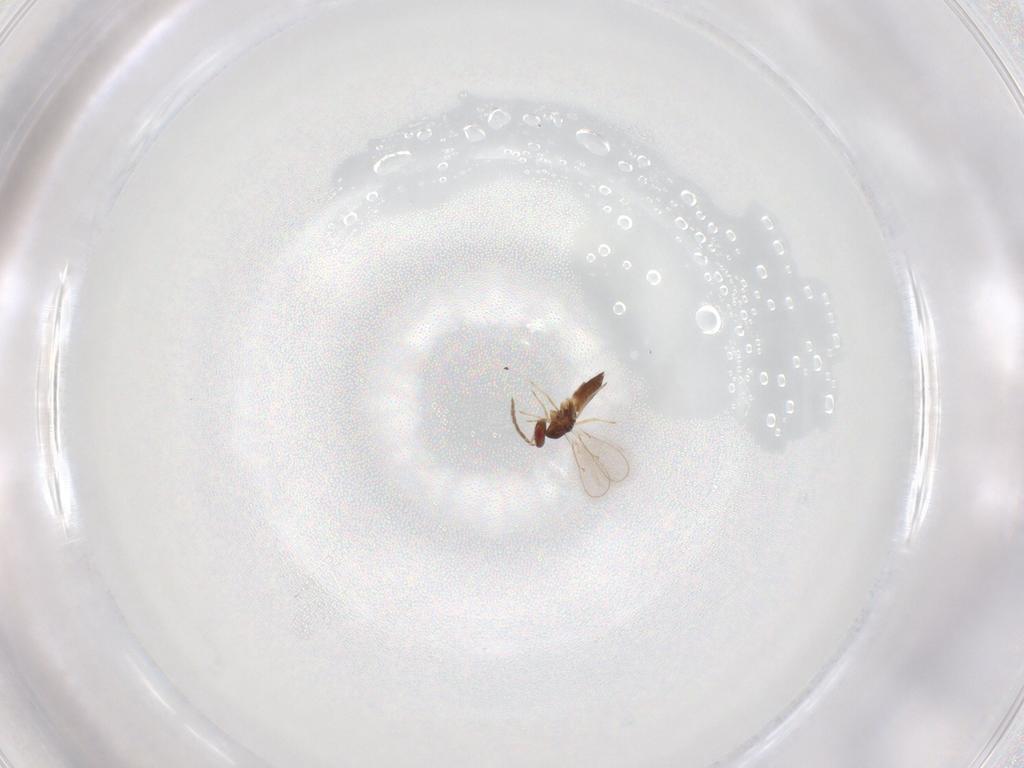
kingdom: Animalia
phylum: Arthropoda
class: Insecta
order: Hymenoptera
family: Eulophidae
